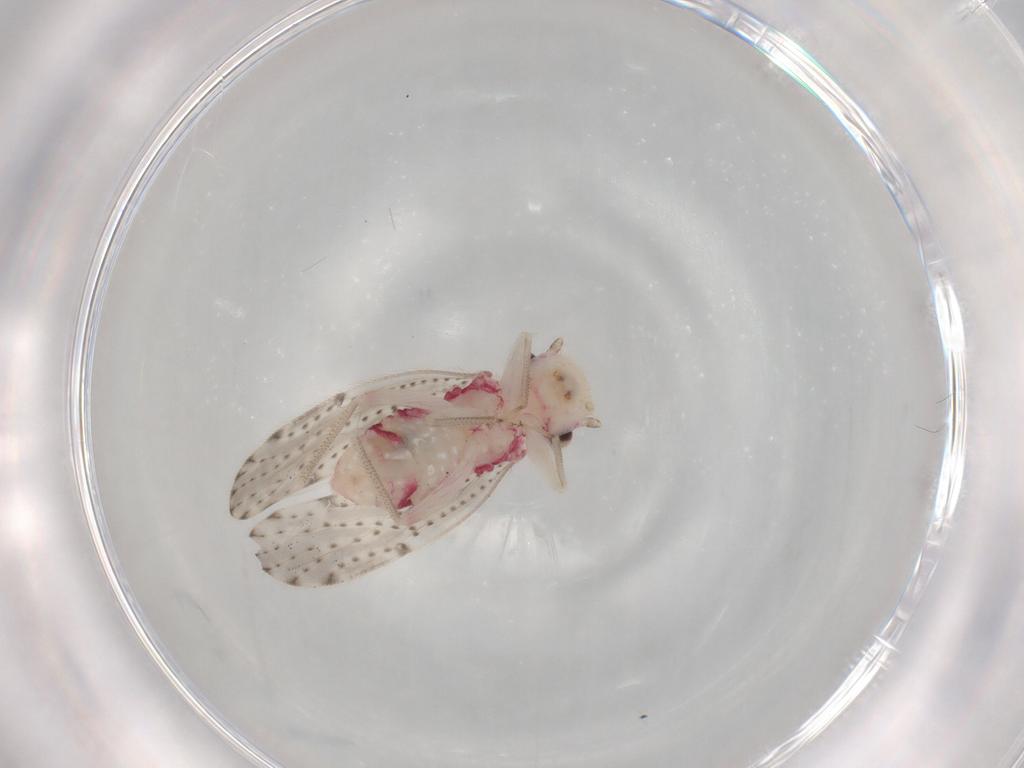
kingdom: Animalia
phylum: Arthropoda
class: Insecta
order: Psocodea
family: Hemipsocidae
